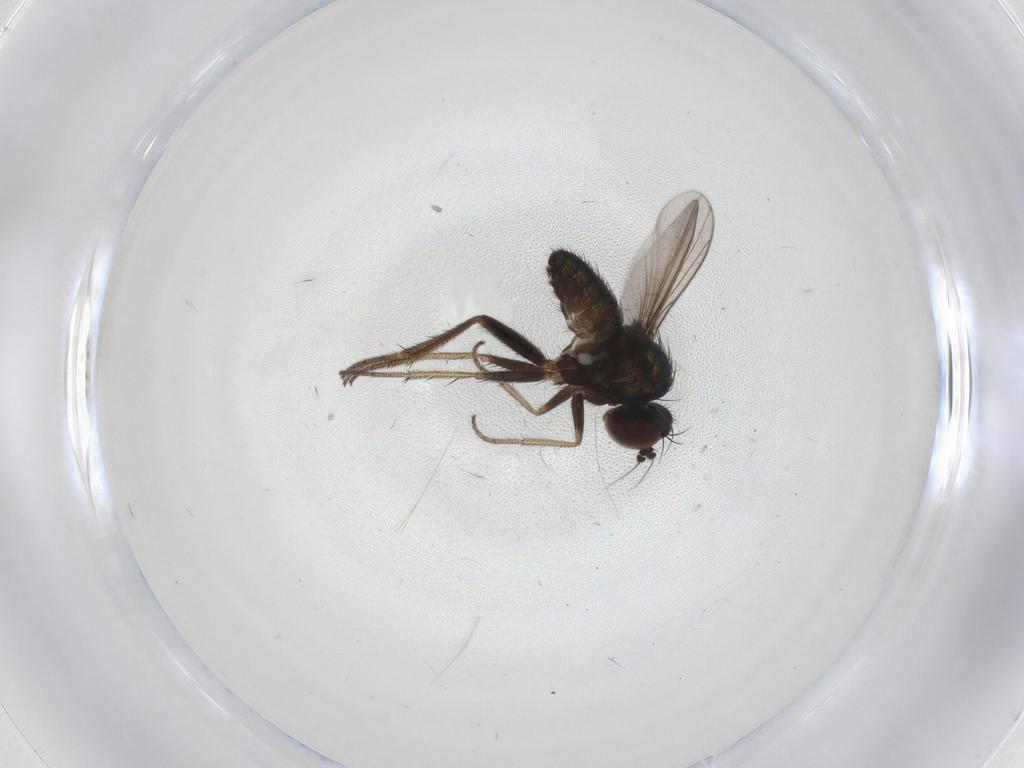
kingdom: Animalia
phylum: Arthropoda
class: Insecta
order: Diptera
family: Dolichopodidae
